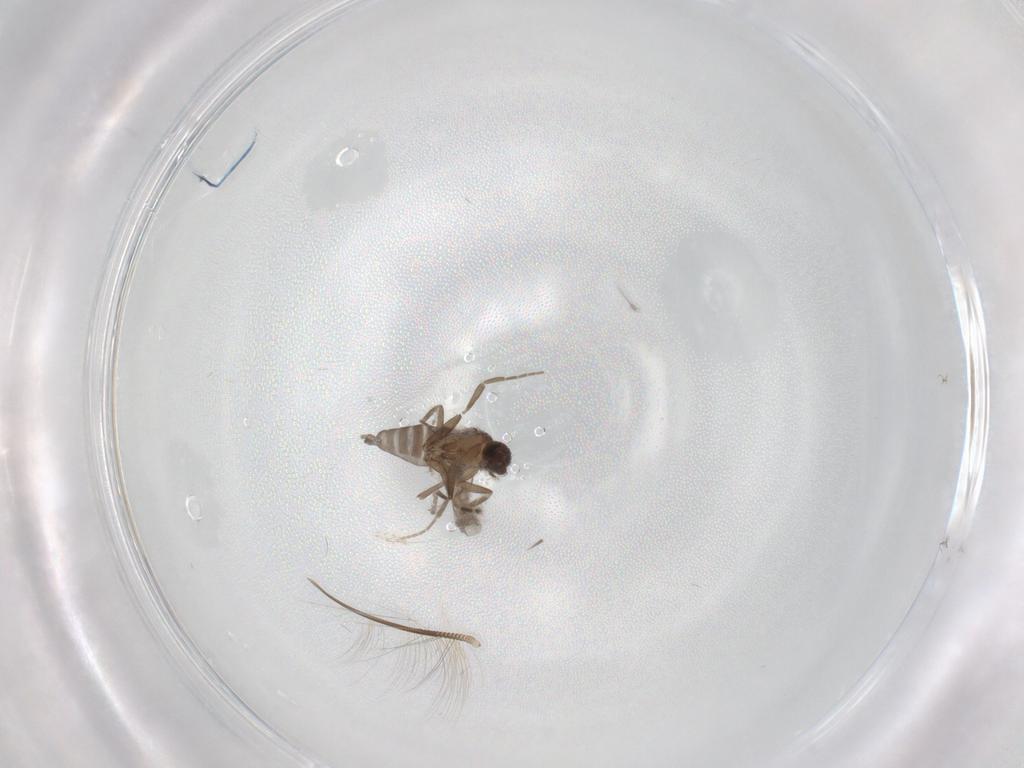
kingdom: Animalia
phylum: Arthropoda
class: Insecta
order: Diptera
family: Chironomidae
